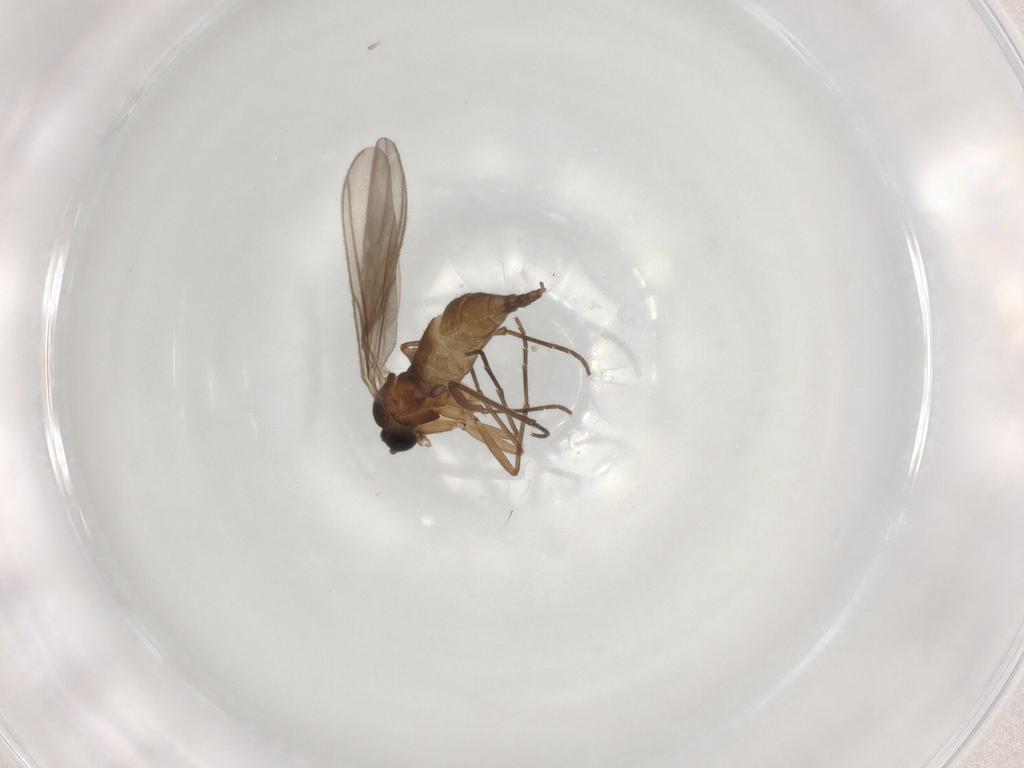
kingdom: Animalia
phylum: Arthropoda
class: Insecta
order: Diptera
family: Sciaridae
